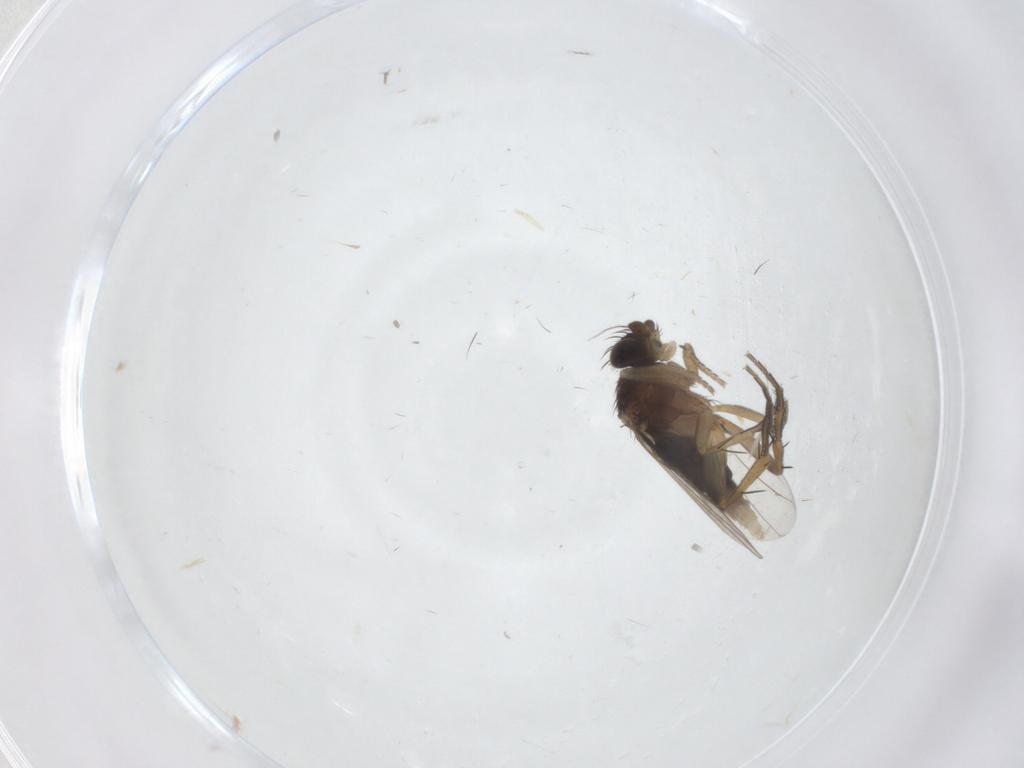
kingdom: Animalia
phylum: Arthropoda
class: Insecta
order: Diptera
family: Phoridae
